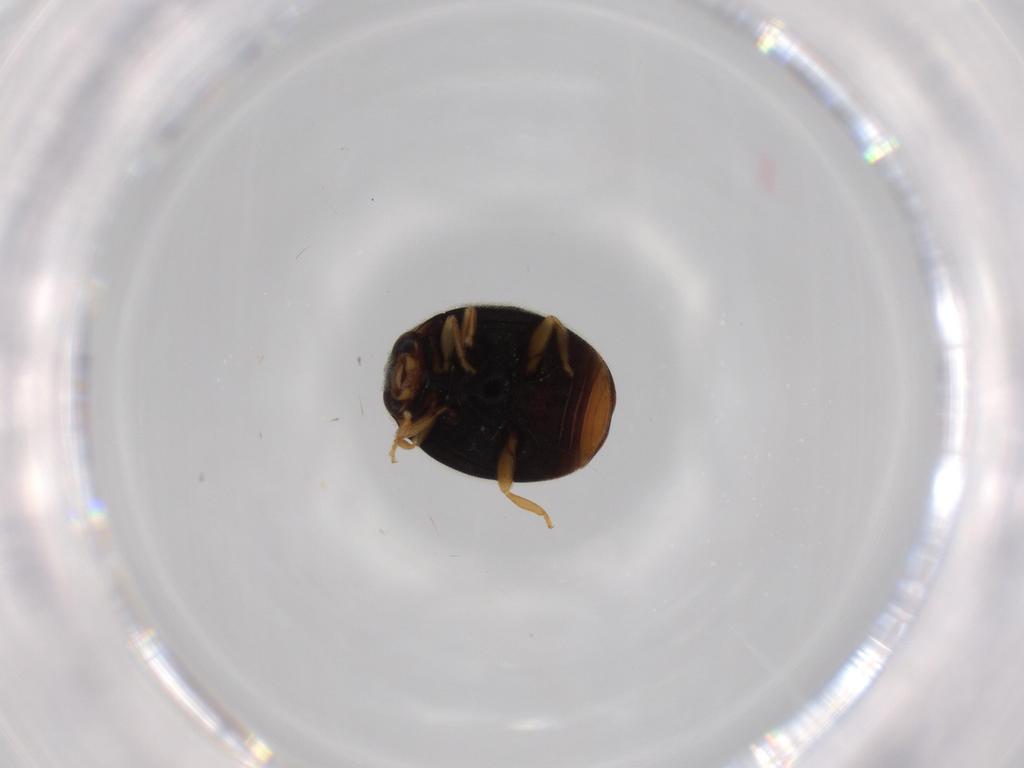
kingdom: Animalia
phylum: Arthropoda
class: Insecta
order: Coleoptera
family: Coccinellidae
